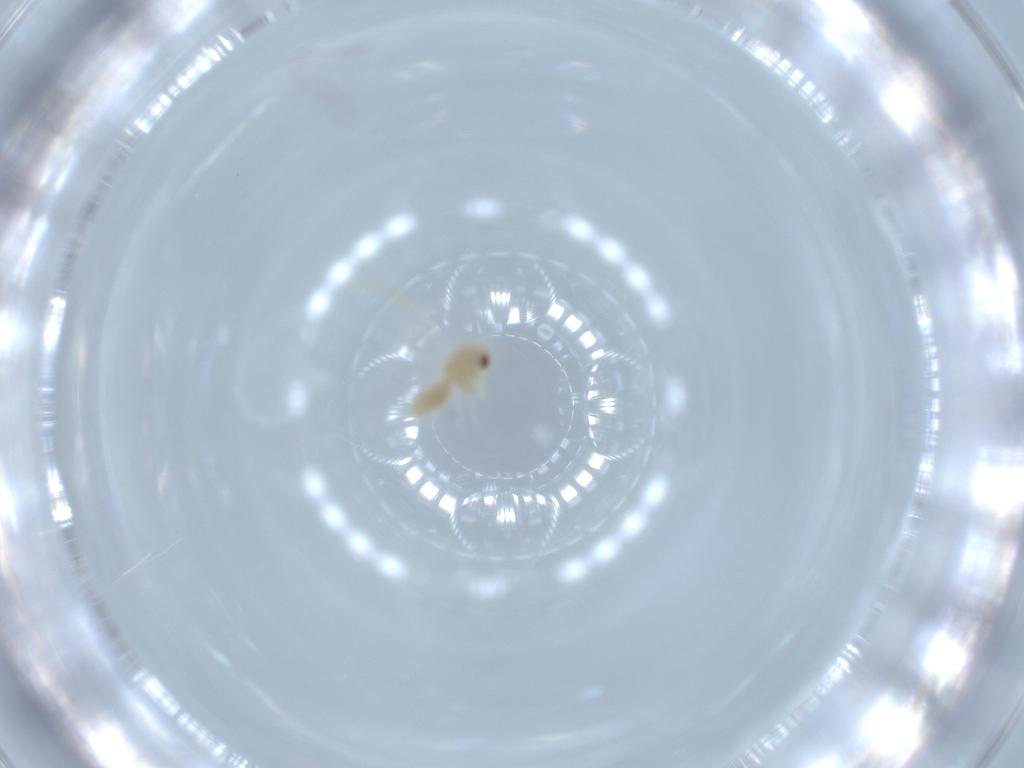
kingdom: Animalia
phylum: Arthropoda
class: Insecta
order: Hemiptera
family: Aleyrodidae
